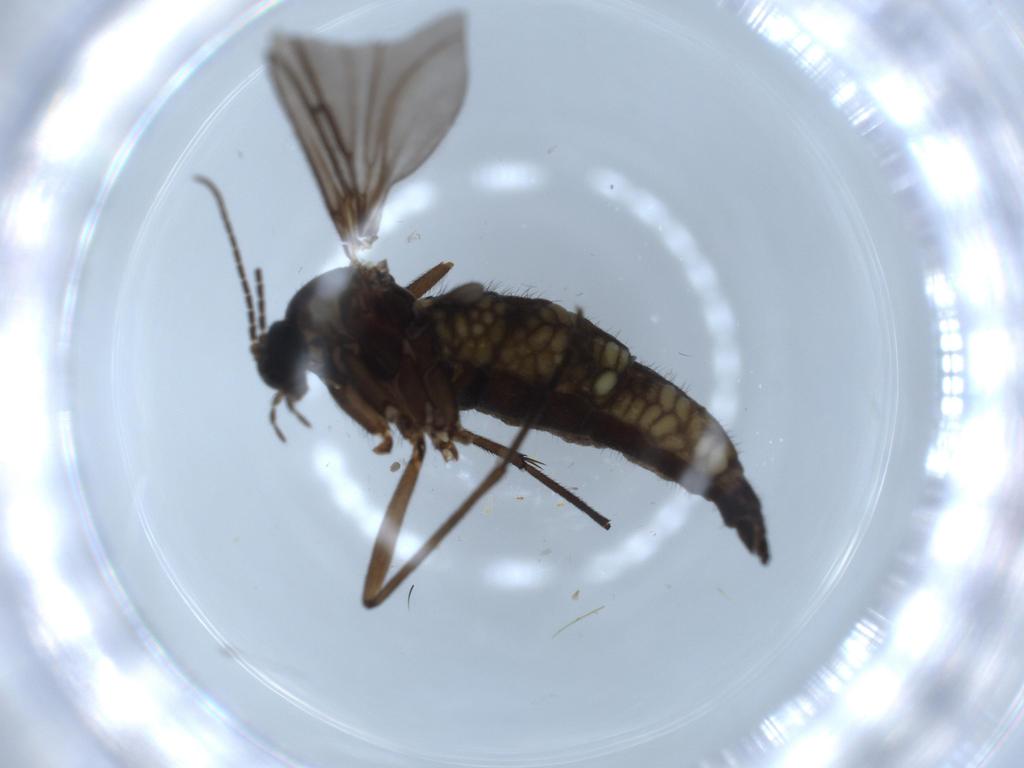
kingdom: Animalia
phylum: Arthropoda
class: Insecta
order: Diptera
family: Sciaridae
